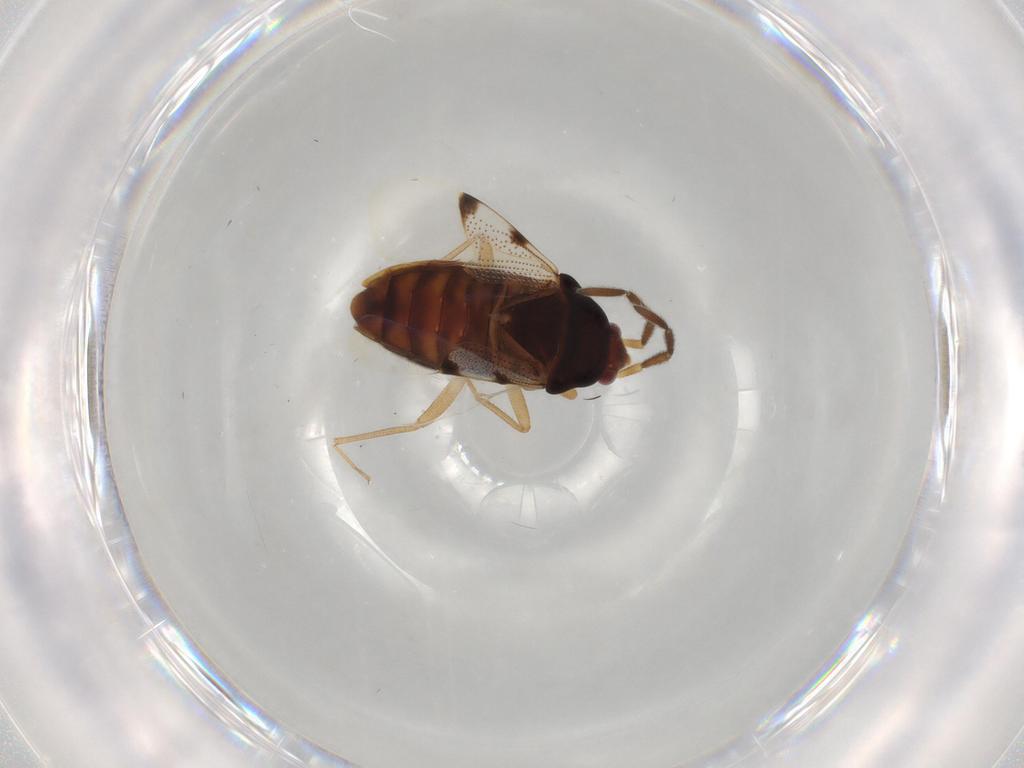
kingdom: Animalia
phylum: Arthropoda
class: Insecta
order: Hemiptera
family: Rhyparochromidae
